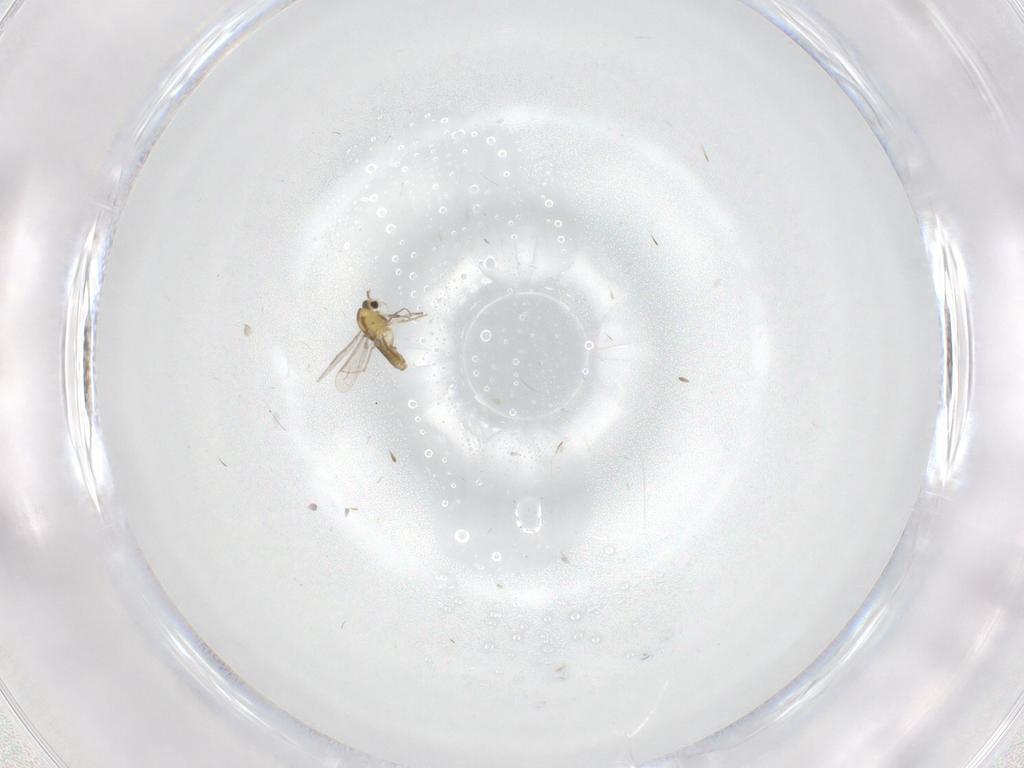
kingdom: Animalia
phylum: Arthropoda
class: Insecta
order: Diptera
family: Chironomidae
